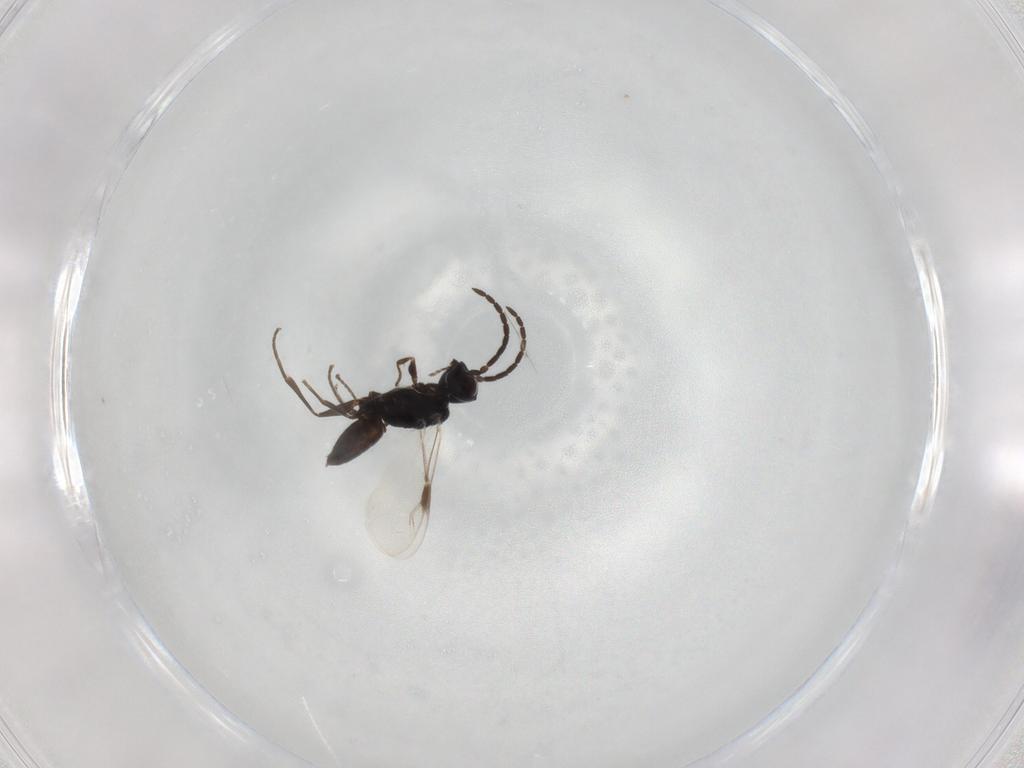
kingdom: Animalia
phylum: Arthropoda
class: Insecta
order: Hymenoptera
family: Dryinidae
